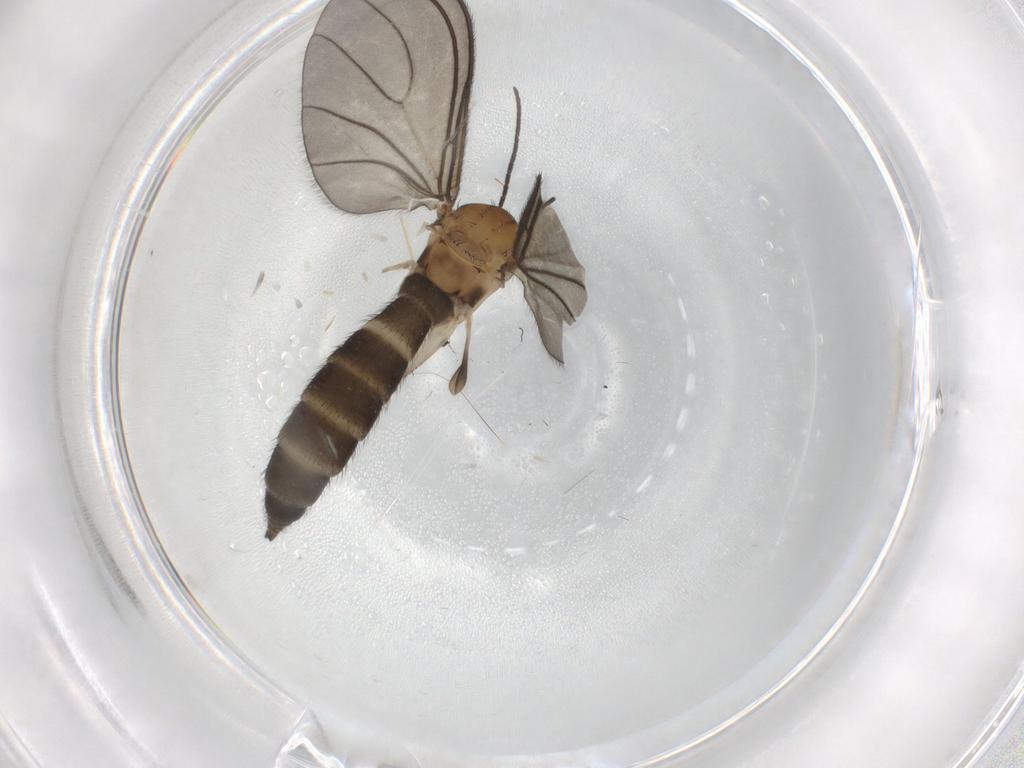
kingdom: Animalia
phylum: Arthropoda
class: Insecta
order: Diptera
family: Sciaridae
